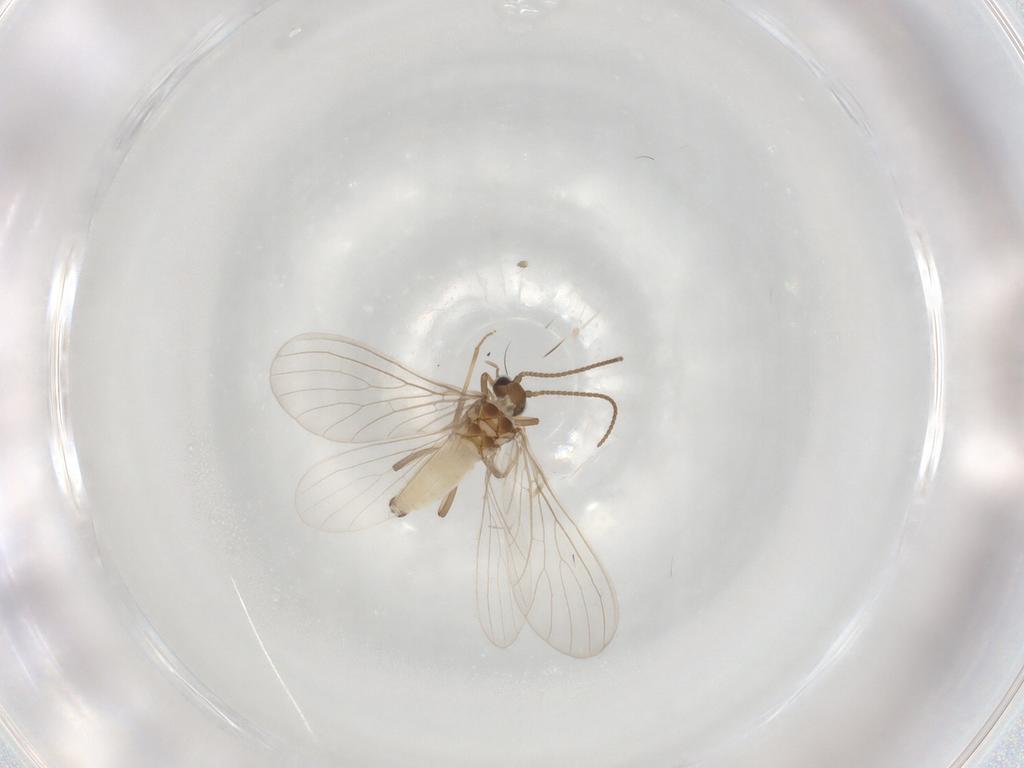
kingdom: Animalia
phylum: Arthropoda
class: Insecta
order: Neuroptera
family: Coniopterygidae
